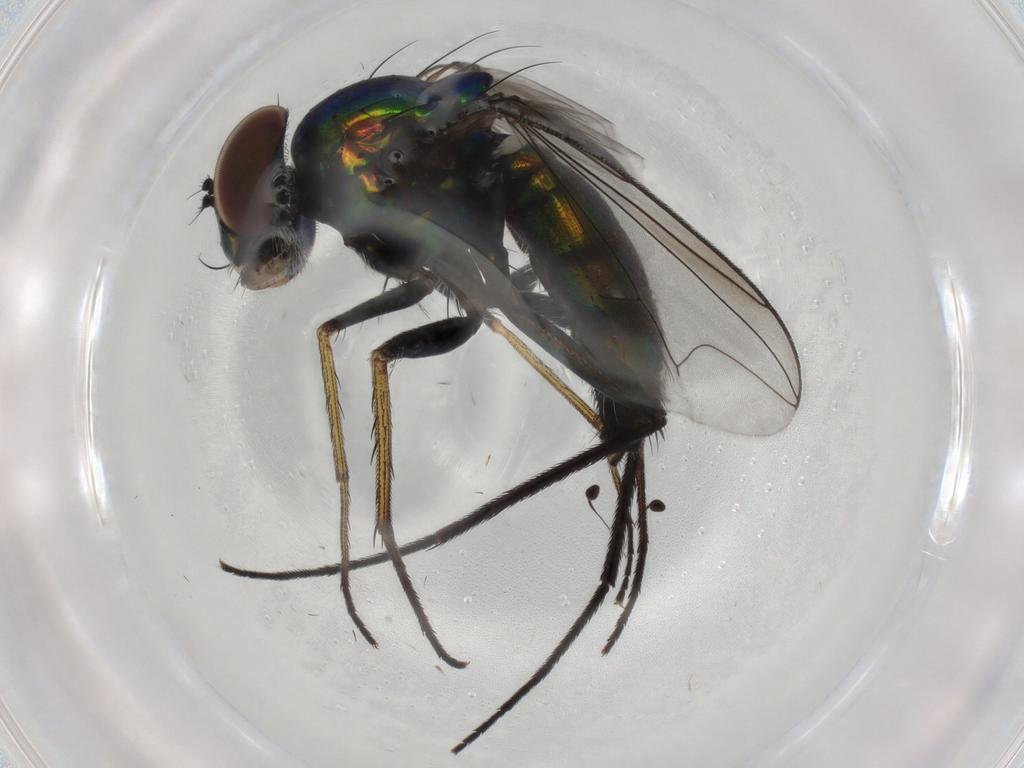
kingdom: Animalia
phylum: Arthropoda
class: Insecta
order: Diptera
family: Dolichopodidae
